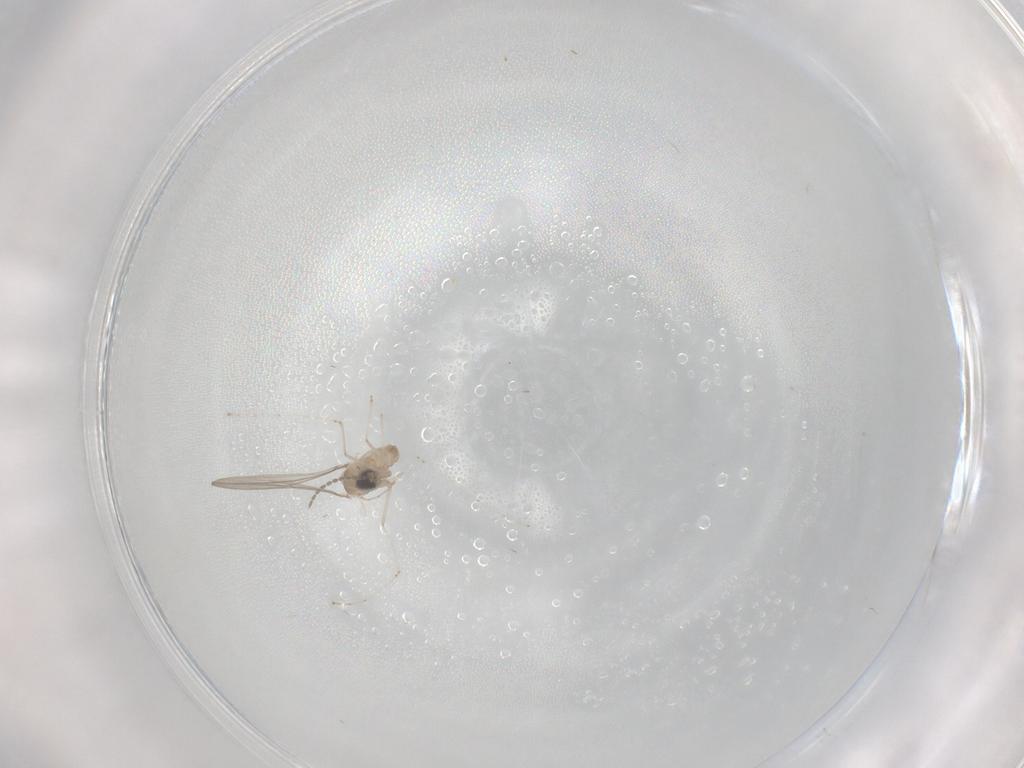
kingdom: Animalia
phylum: Arthropoda
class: Insecta
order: Diptera
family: Cecidomyiidae
